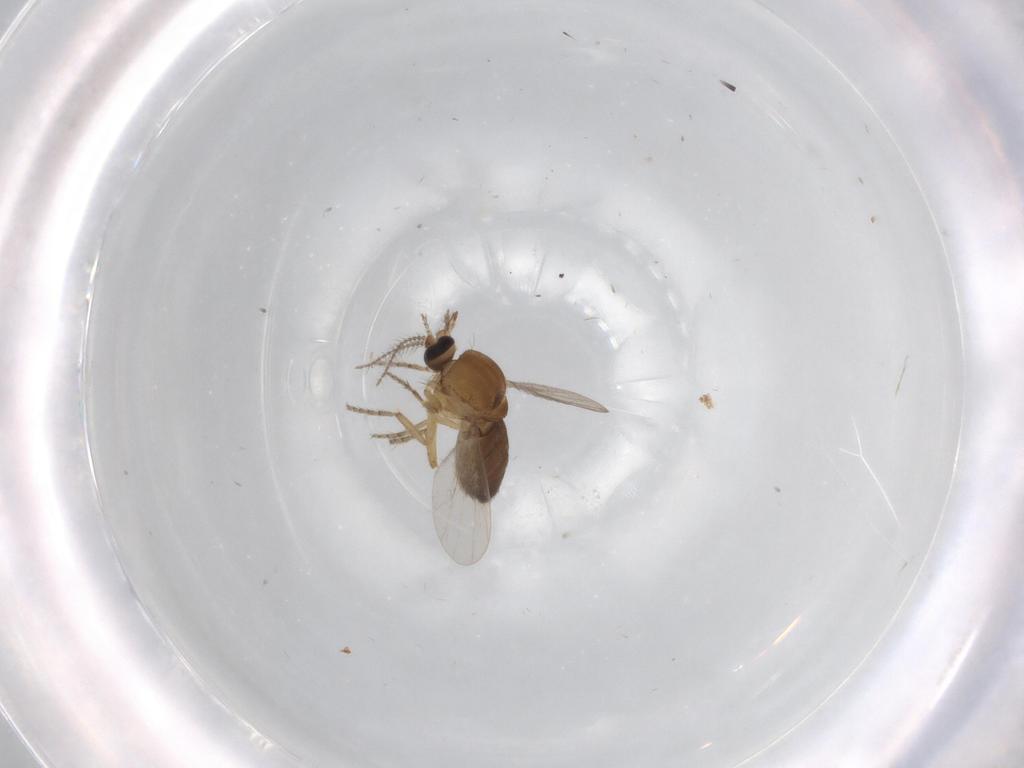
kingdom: Animalia
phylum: Arthropoda
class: Insecta
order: Diptera
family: Ceratopogonidae
